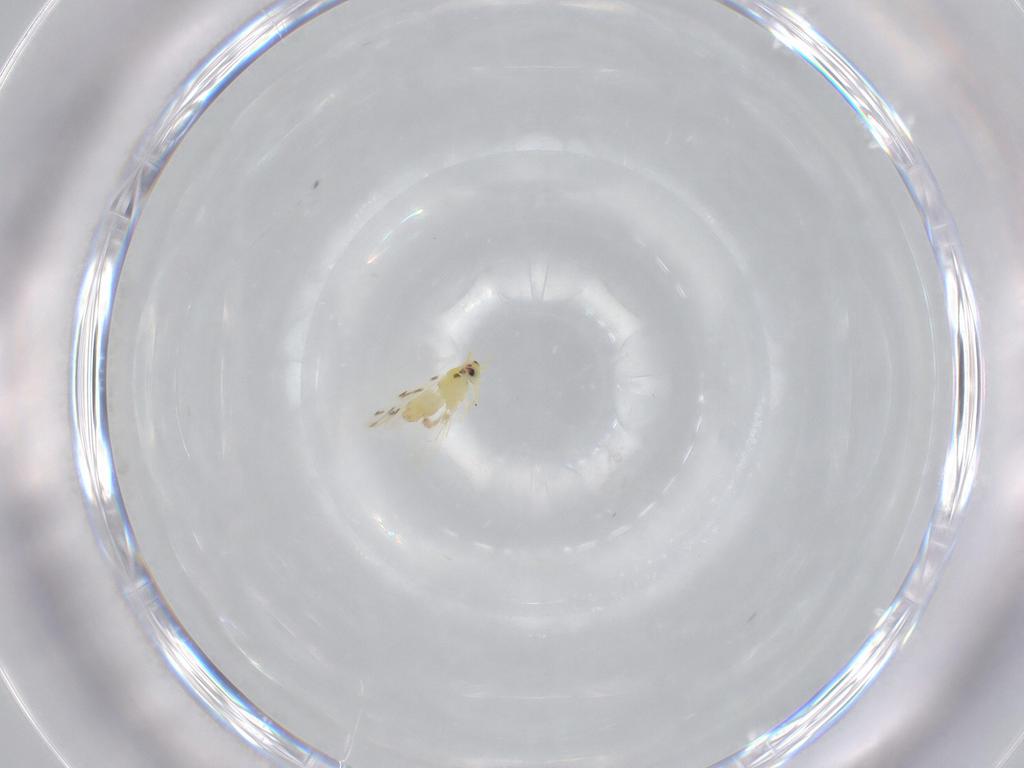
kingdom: Animalia
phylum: Arthropoda
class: Insecta
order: Hemiptera
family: Aleyrodidae
